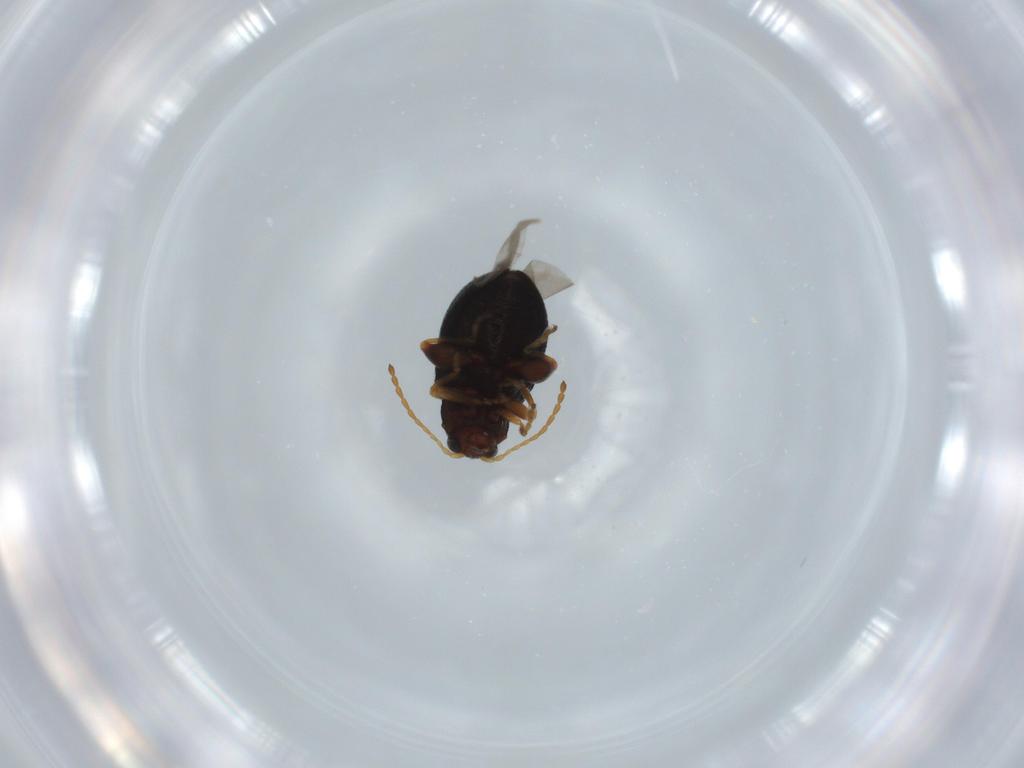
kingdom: Animalia
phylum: Arthropoda
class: Insecta
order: Coleoptera
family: Chrysomelidae
